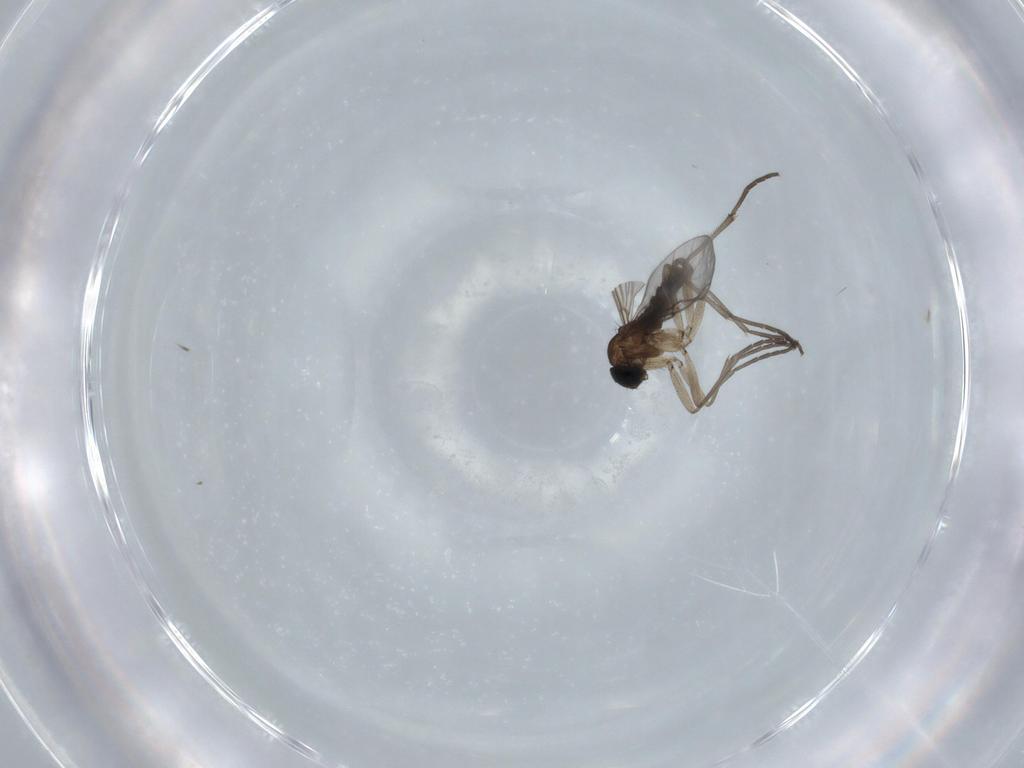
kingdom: Animalia
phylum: Arthropoda
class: Insecta
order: Diptera
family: Sciaridae
